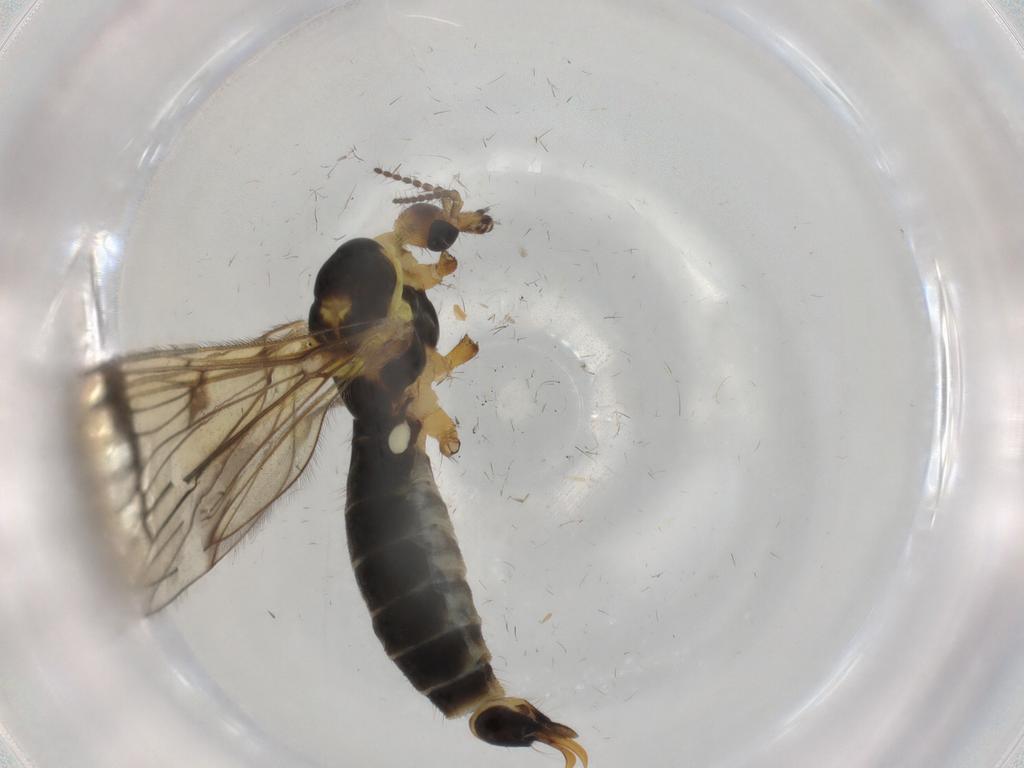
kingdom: Animalia
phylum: Arthropoda
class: Insecta
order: Diptera
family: Limoniidae
